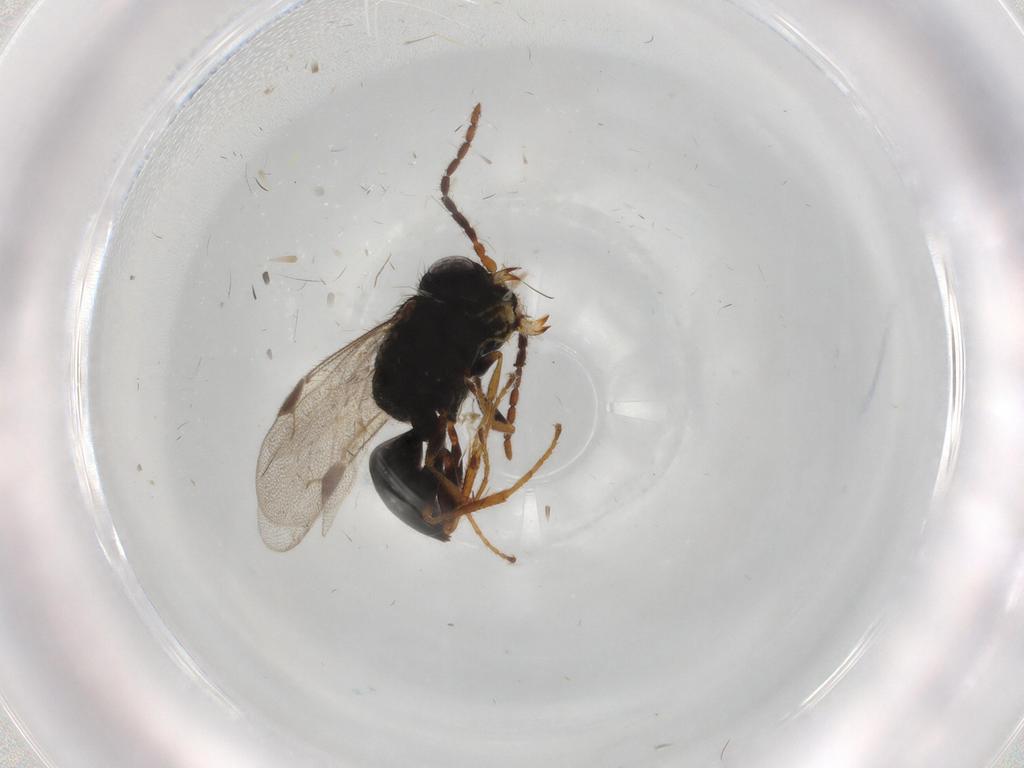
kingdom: Animalia
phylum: Arthropoda
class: Insecta
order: Hymenoptera
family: Dryinidae
